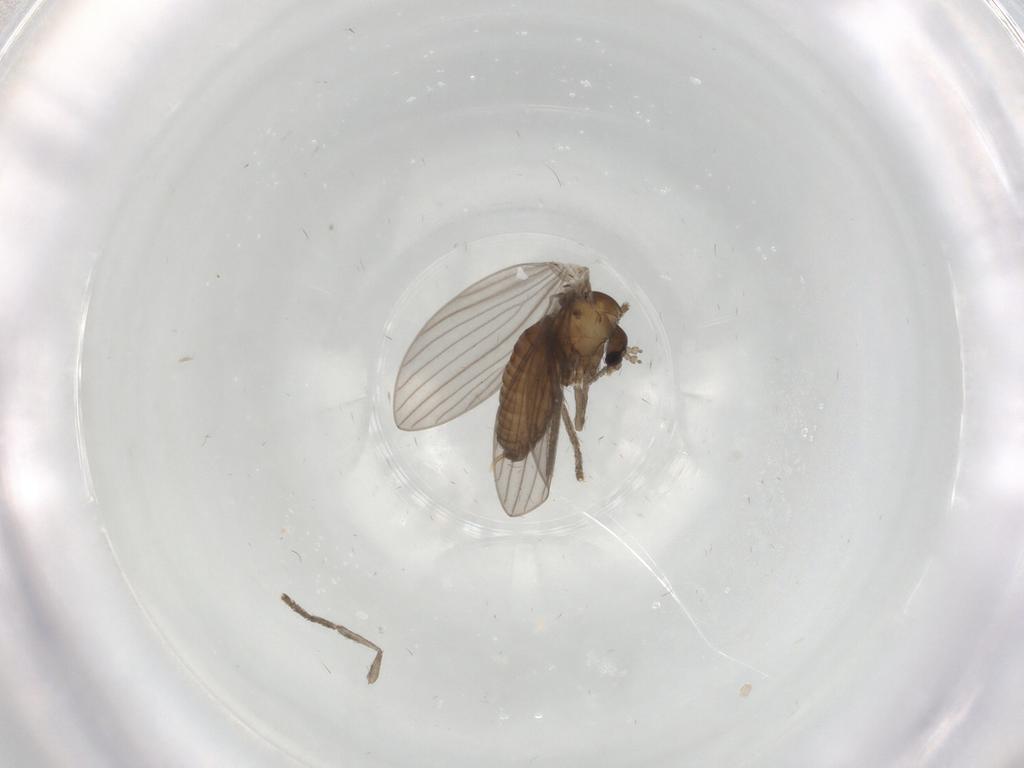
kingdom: Animalia
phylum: Arthropoda
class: Insecta
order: Diptera
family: Psychodidae
